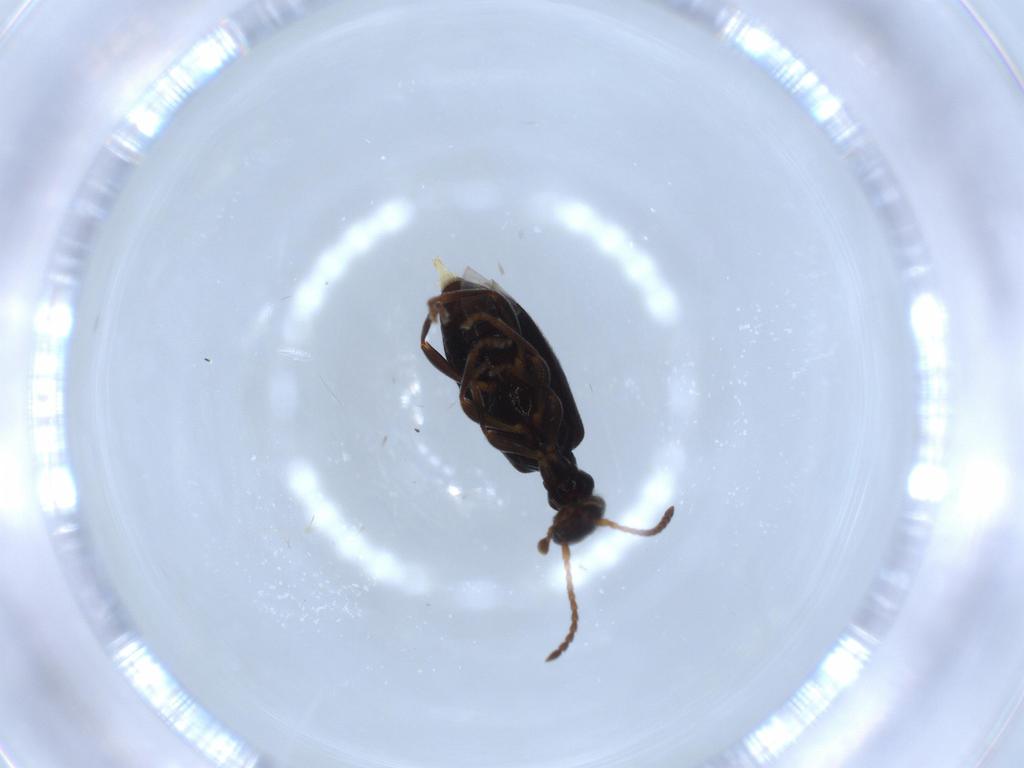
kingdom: Animalia
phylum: Arthropoda
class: Insecta
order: Coleoptera
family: Anthicidae
